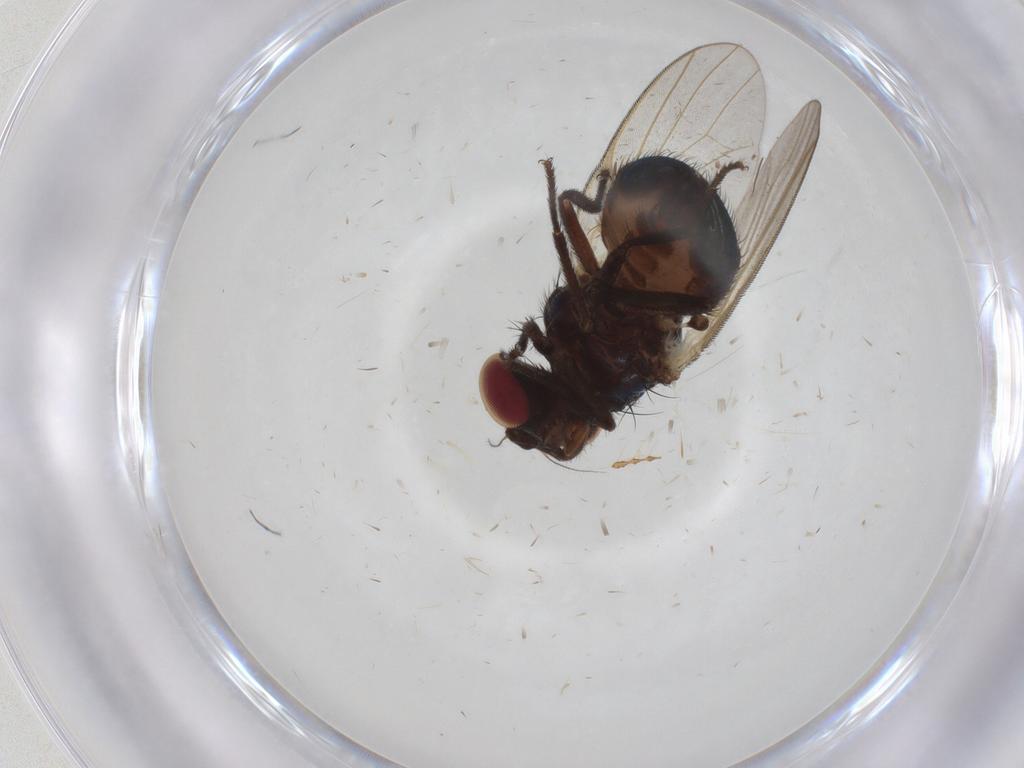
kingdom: Animalia
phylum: Arthropoda
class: Insecta
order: Diptera
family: Lonchaeidae
